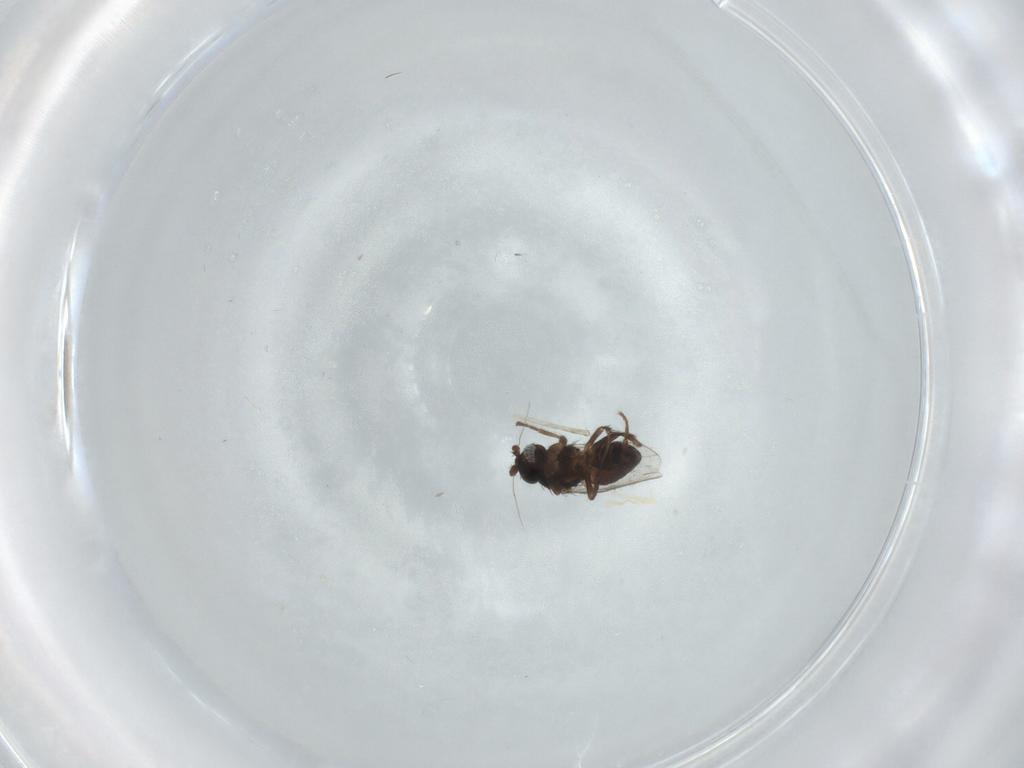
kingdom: Animalia
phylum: Arthropoda
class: Insecta
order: Diptera
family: Sphaeroceridae
